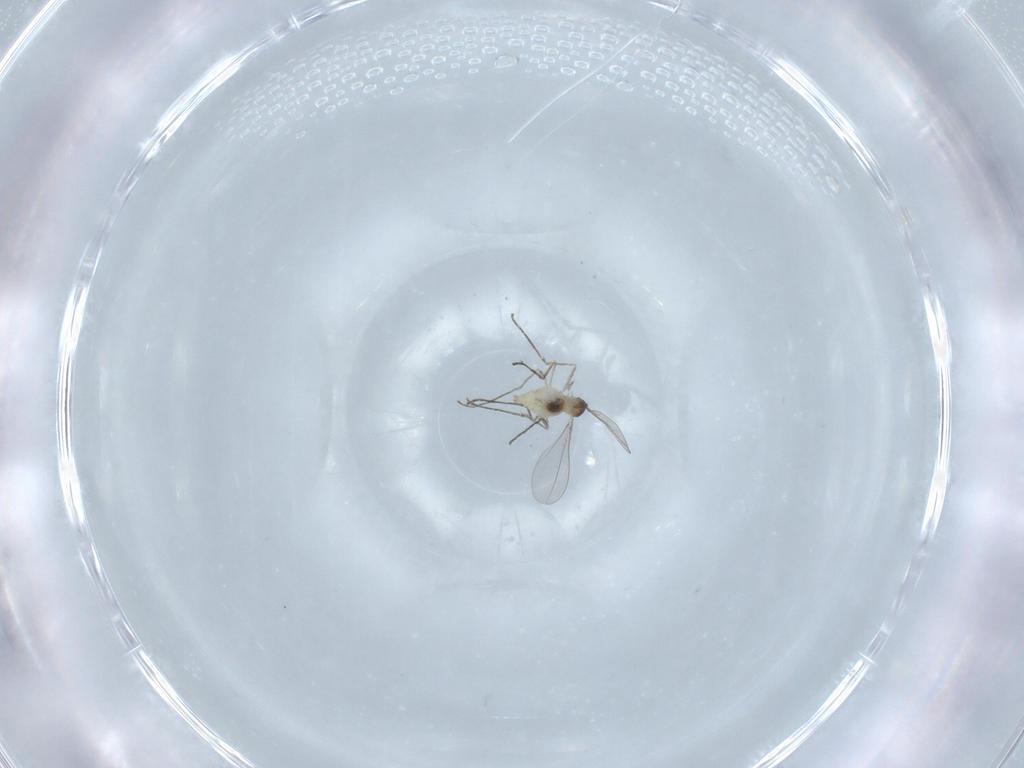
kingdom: Animalia
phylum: Arthropoda
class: Insecta
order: Diptera
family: Cecidomyiidae
